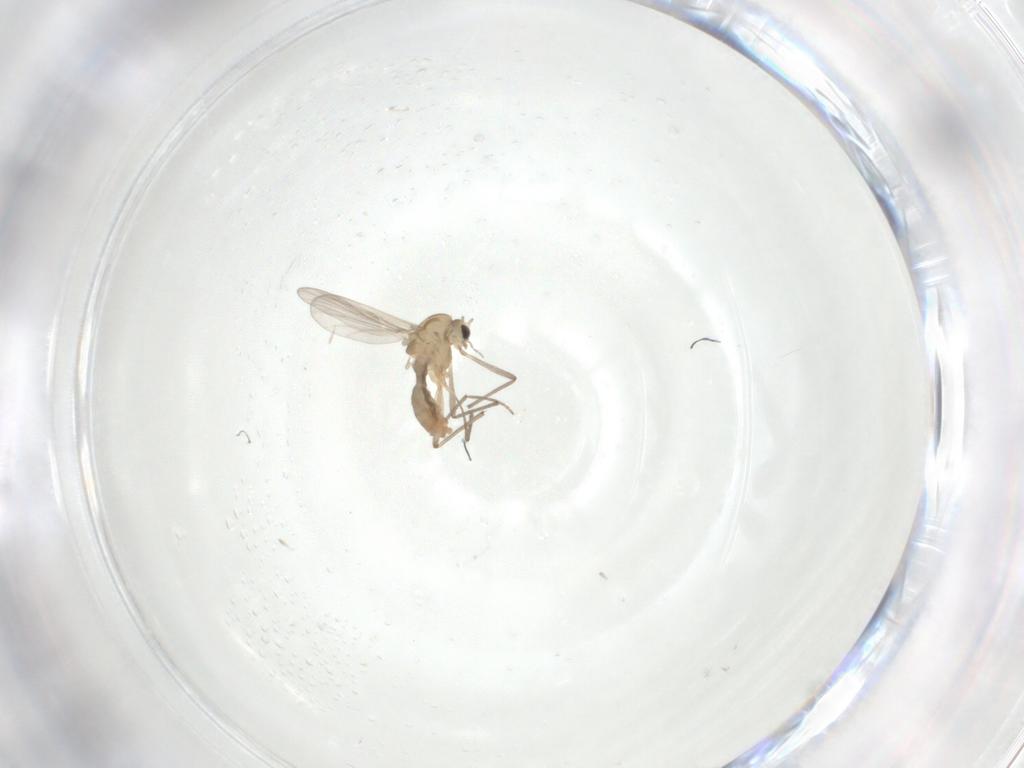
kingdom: Animalia
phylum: Arthropoda
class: Insecta
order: Diptera
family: Chironomidae
